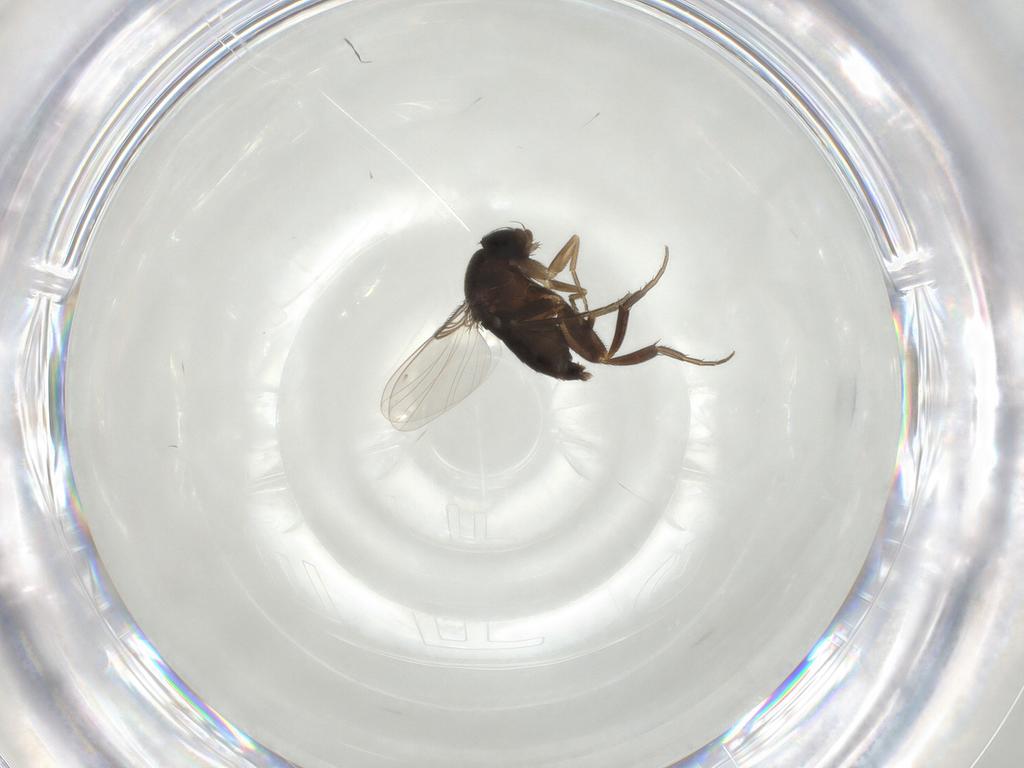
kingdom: Animalia
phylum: Arthropoda
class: Insecta
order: Diptera
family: Phoridae
